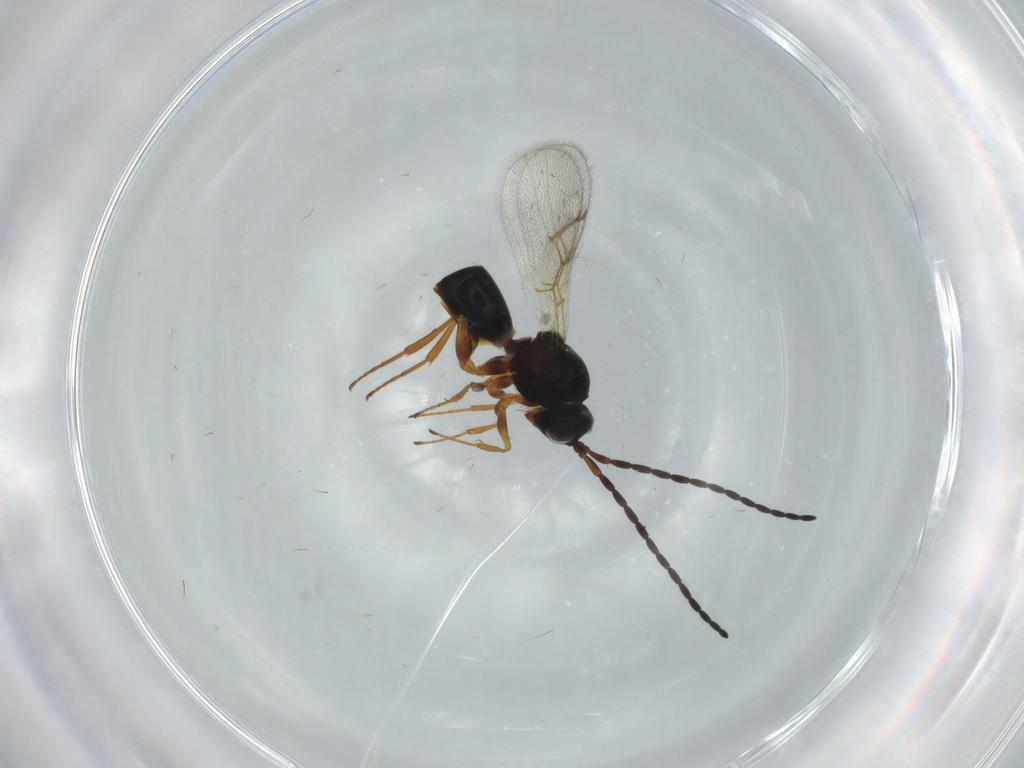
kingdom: Animalia
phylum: Arthropoda
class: Insecta
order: Hymenoptera
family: Figitidae
